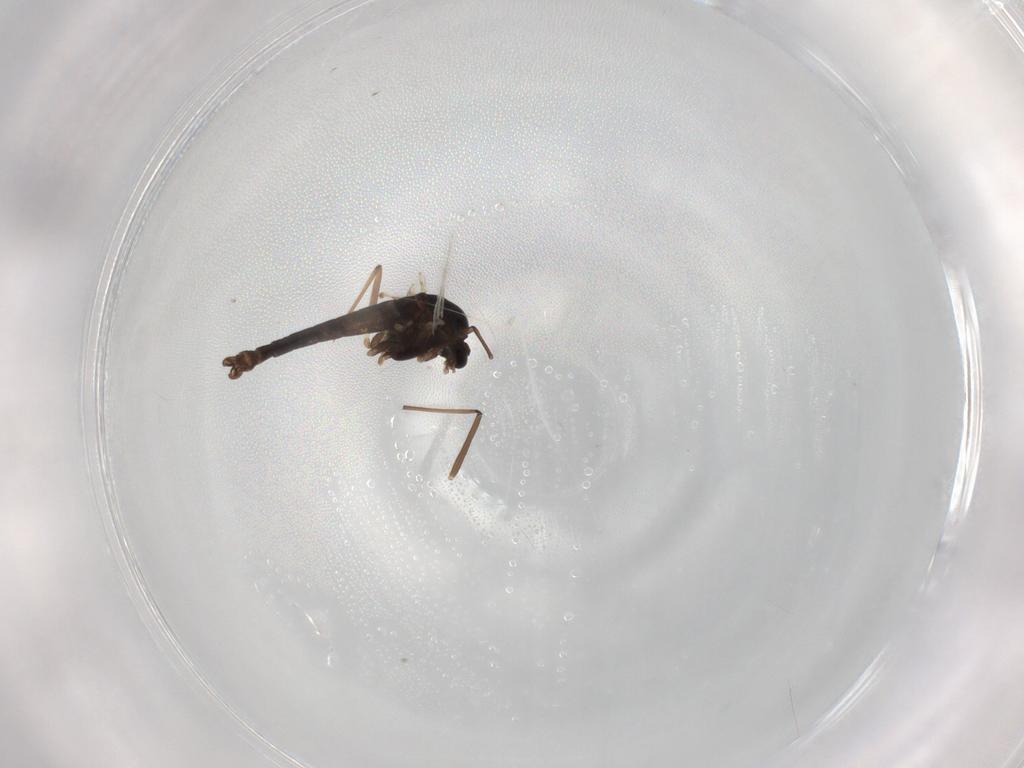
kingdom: Animalia
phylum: Arthropoda
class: Insecta
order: Diptera
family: Chironomidae
